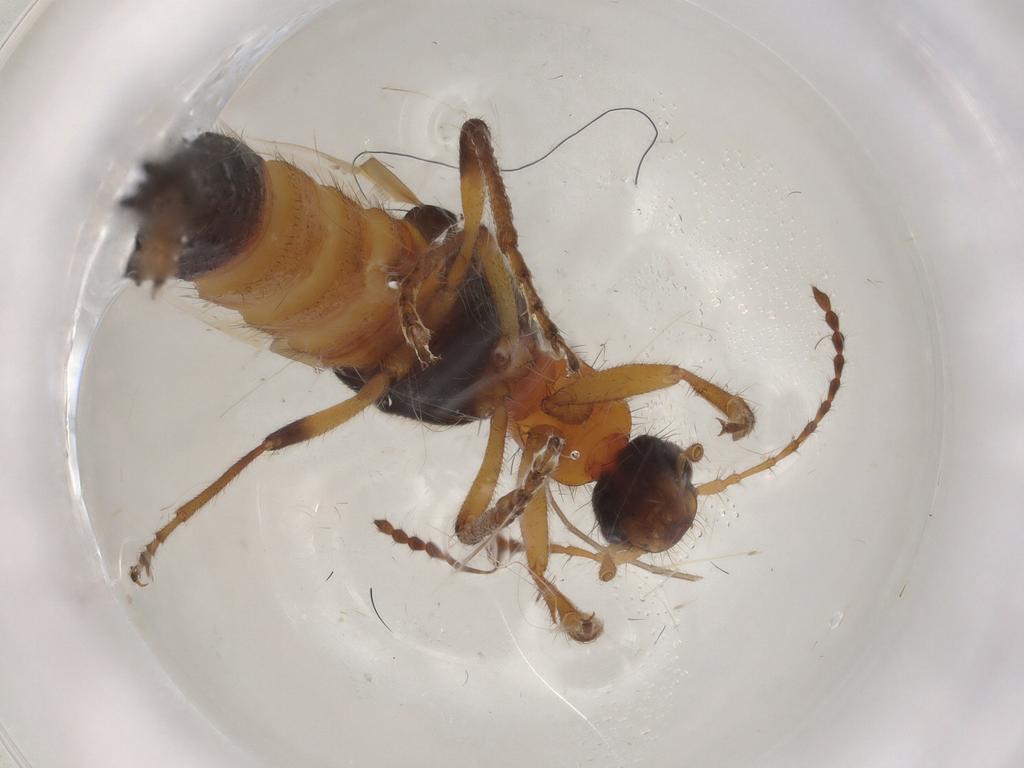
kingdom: Animalia
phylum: Arthropoda
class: Insecta
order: Coleoptera
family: Staphylinidae
